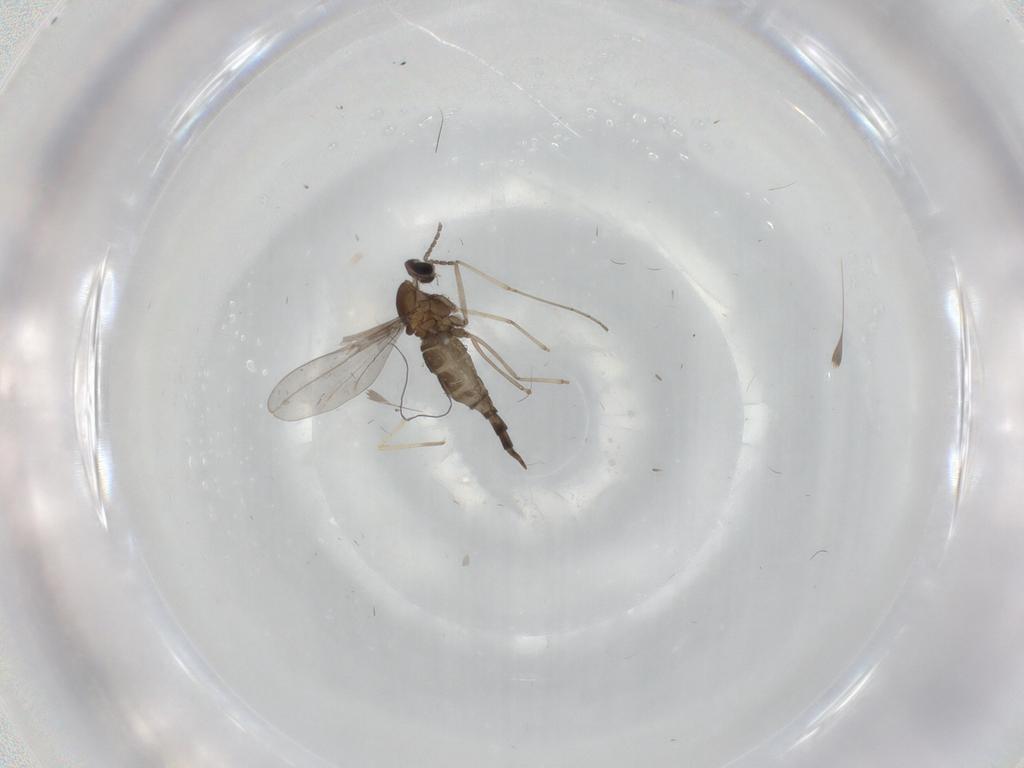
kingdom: Animalia
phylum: Arthropoda
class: Insecta
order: Diptera
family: Cecidomyiidae
